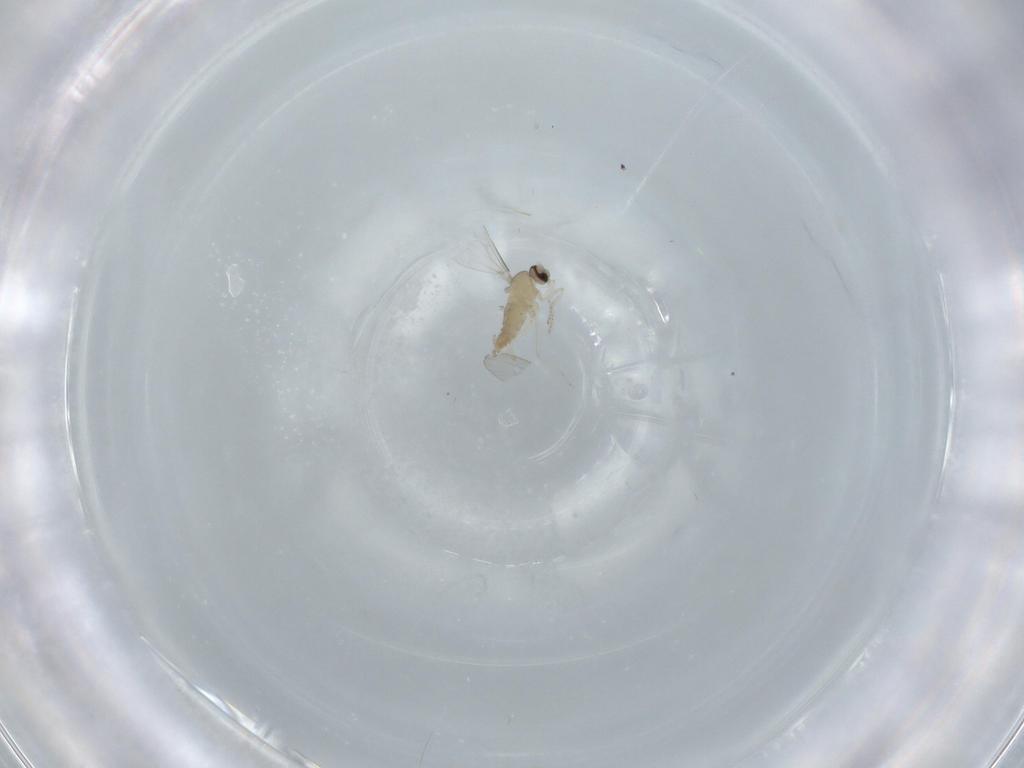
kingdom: Animalia
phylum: Arthropoda
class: Insecta
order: Diptera
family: Cecidomyiidae
